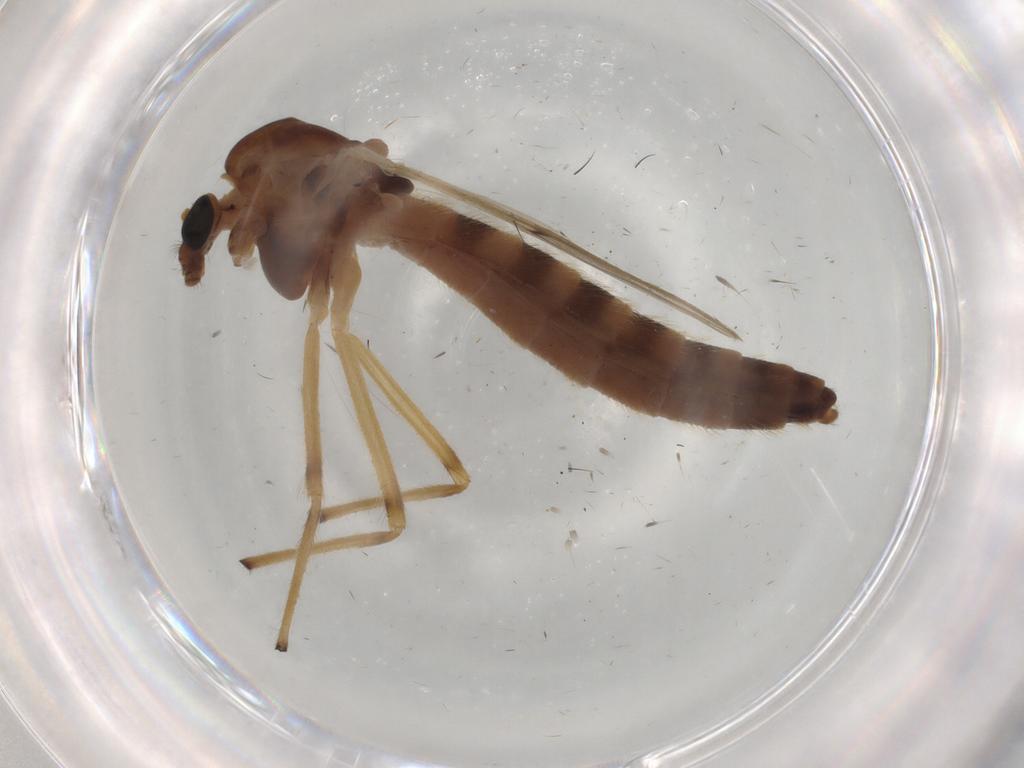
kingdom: Animalia
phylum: Arthropoda
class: Insecta
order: Diptera
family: Chironomidae
